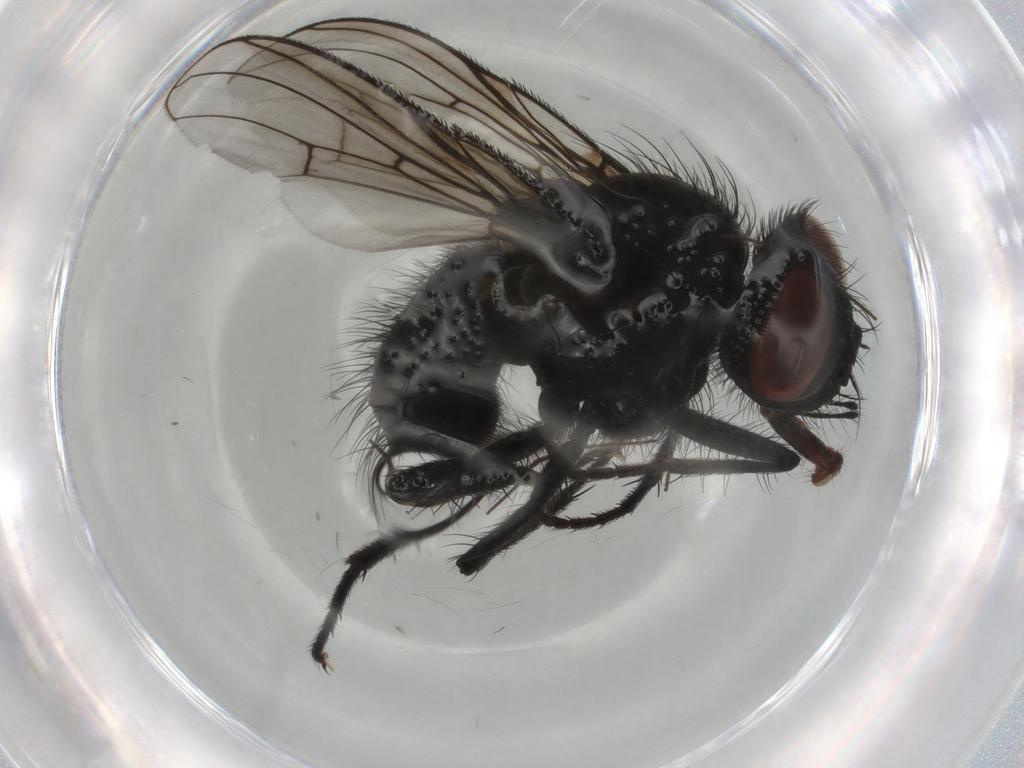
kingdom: Animalia
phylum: Arthropoda
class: Insecta
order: Diptera
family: Muscidae
